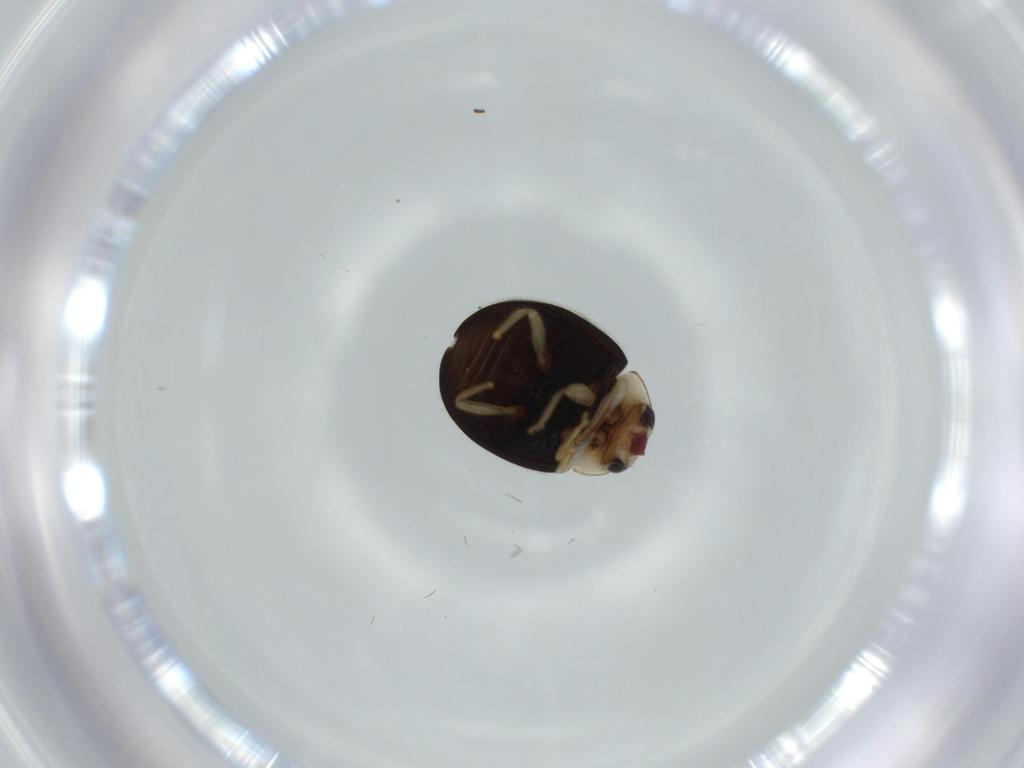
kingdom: Animalia
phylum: Arthropoda
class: Insecta
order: Coleoptera
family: Coccinellidae
